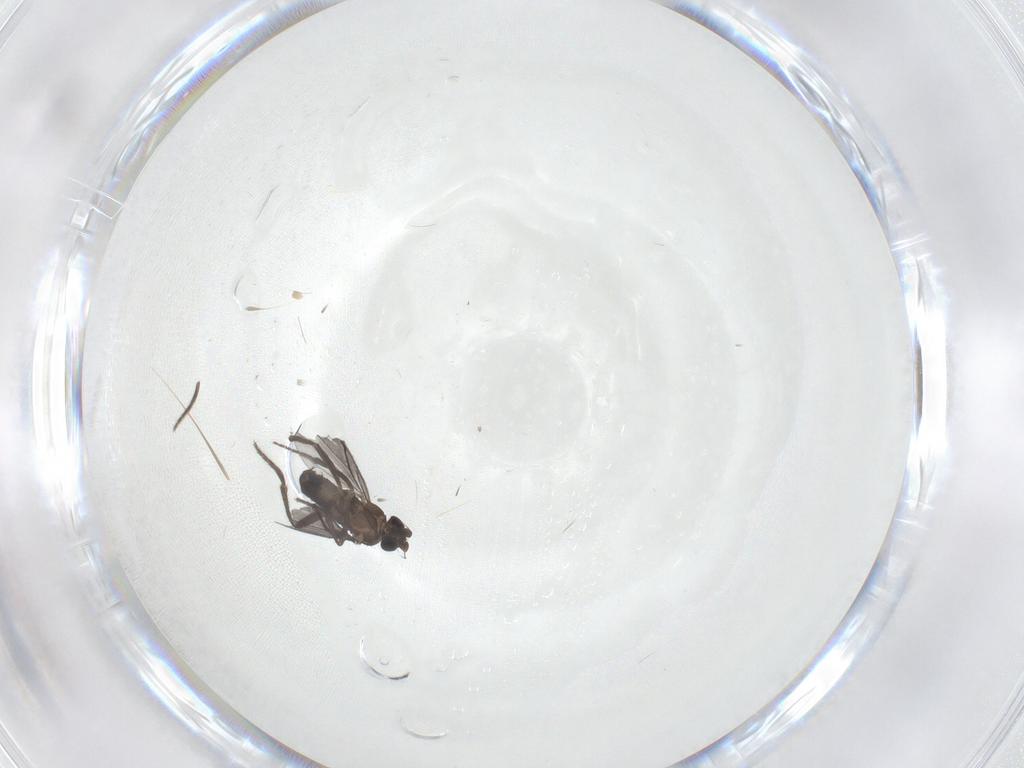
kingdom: Animalia
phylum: Arthropoda
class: Insecta
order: Diptera
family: Phoridae
